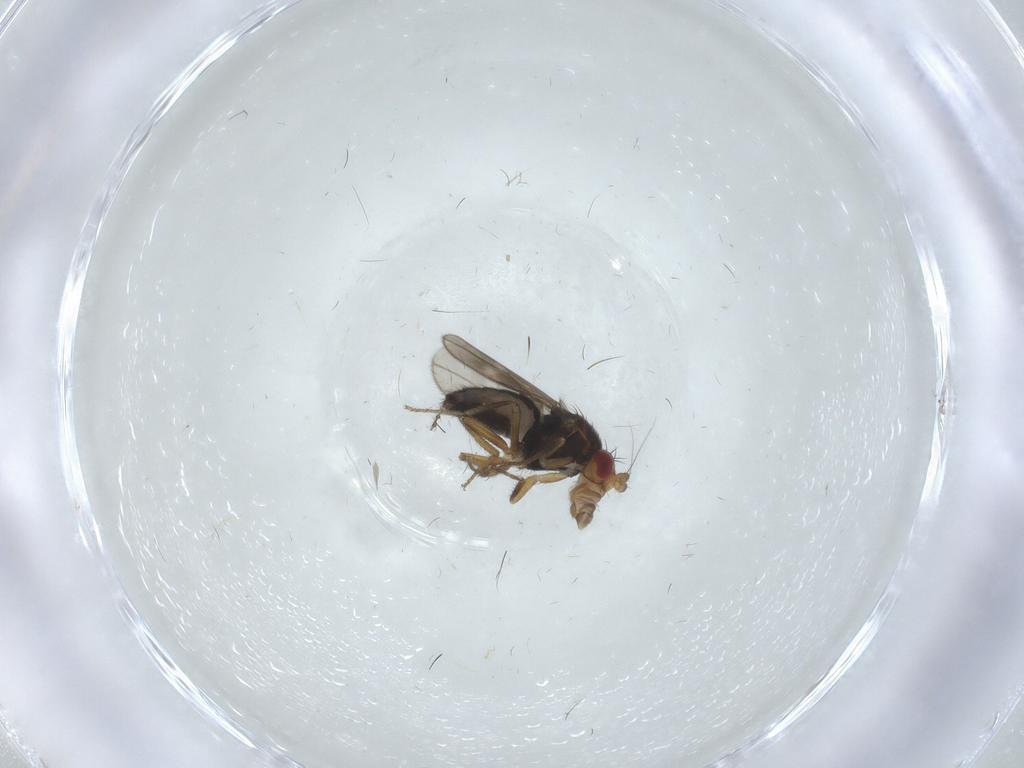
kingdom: Animalia
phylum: Arthropoda
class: Insecta
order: Diptera
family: Sphaeroceridae
